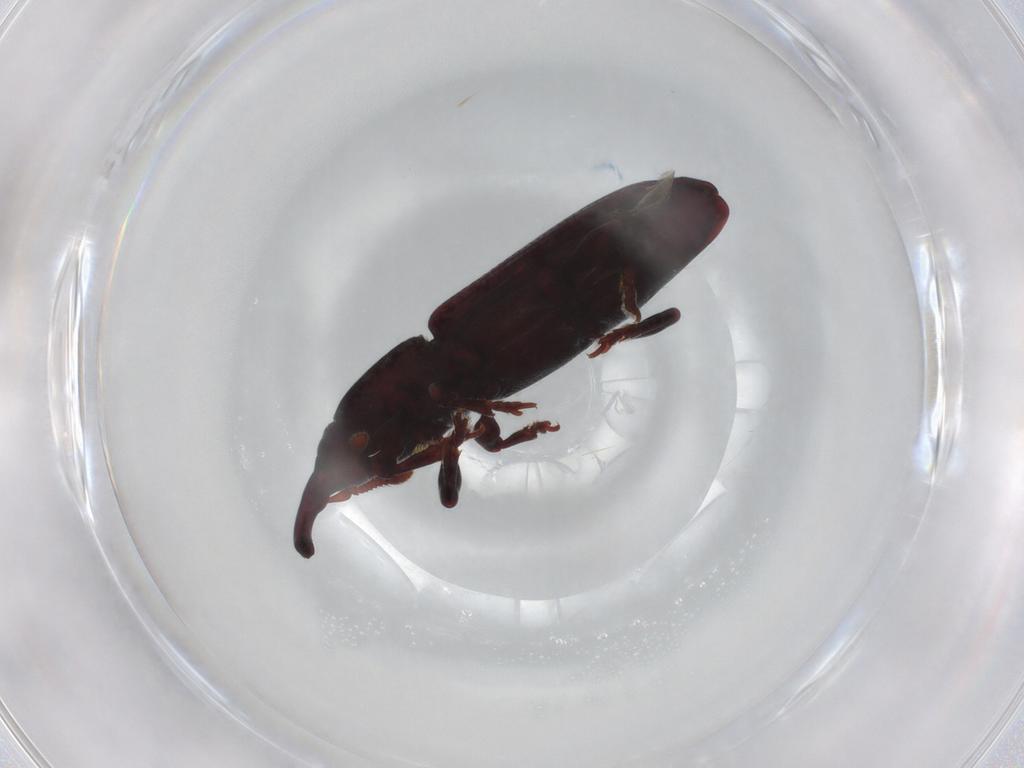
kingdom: Animalia
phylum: Arthropoda
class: Insecta
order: Coleoptera
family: Curculionidae
